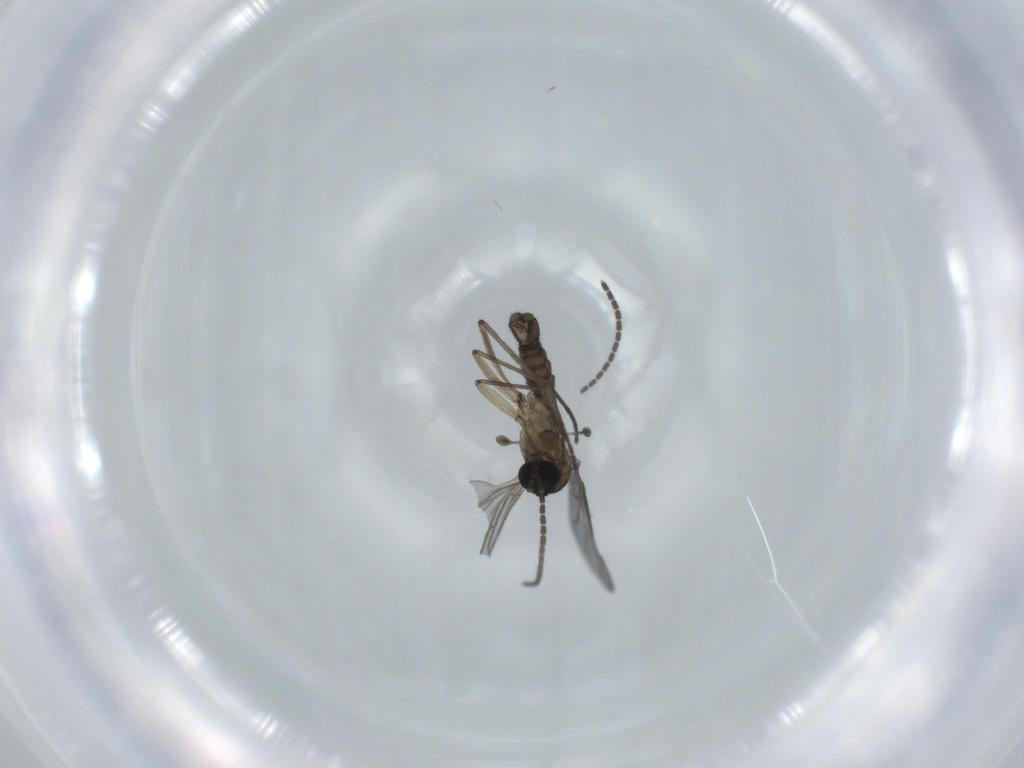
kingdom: Animalia
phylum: Arthropoda
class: Insecta
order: Diptera
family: Sciaridae
